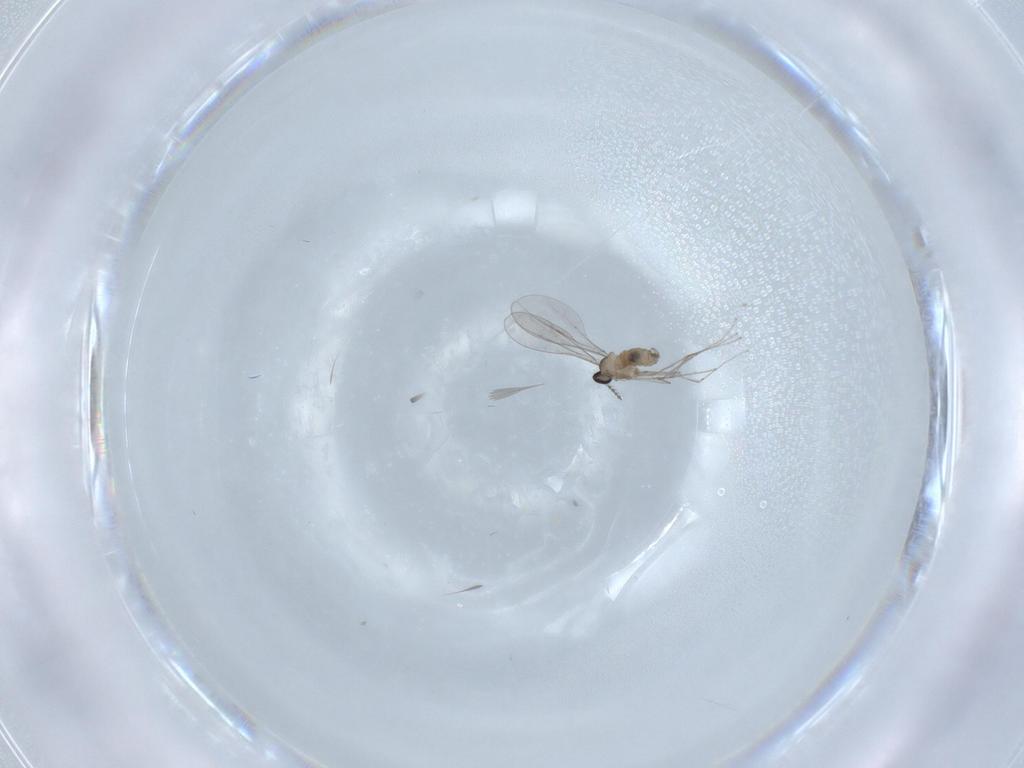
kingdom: Animalia
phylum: Arthropoda
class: Insecta
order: Diptera
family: Cecidomyiidae
